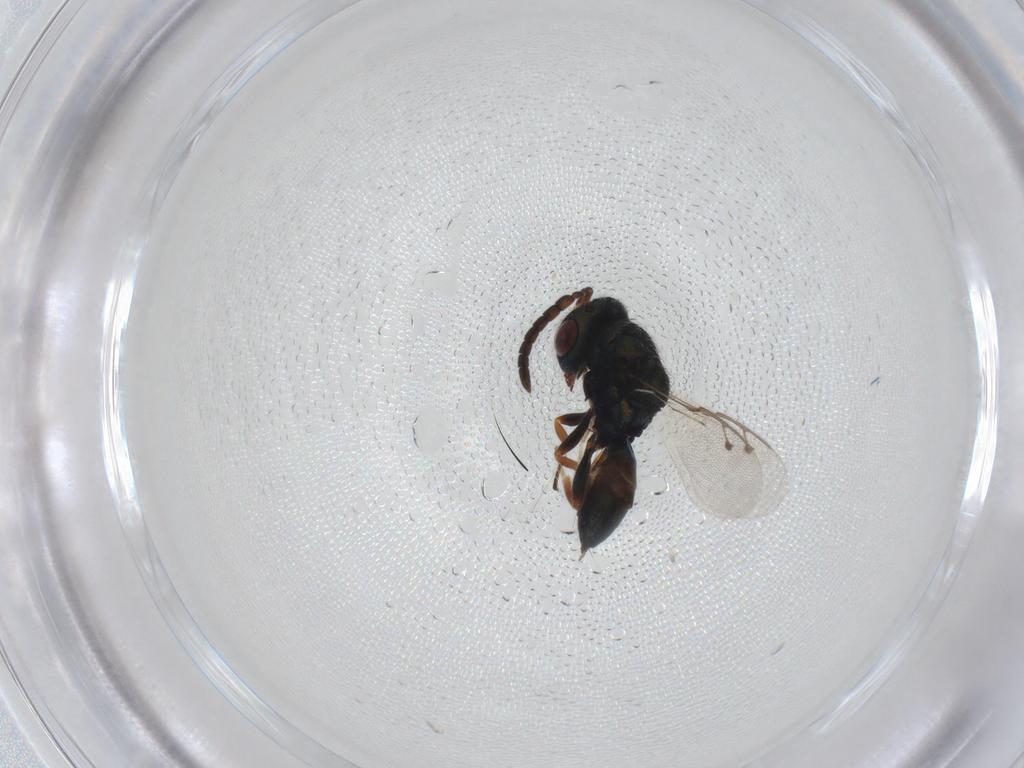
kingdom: Animalia
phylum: Arthropoda
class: Insecta
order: Hymenoptera
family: Pteromalidae
